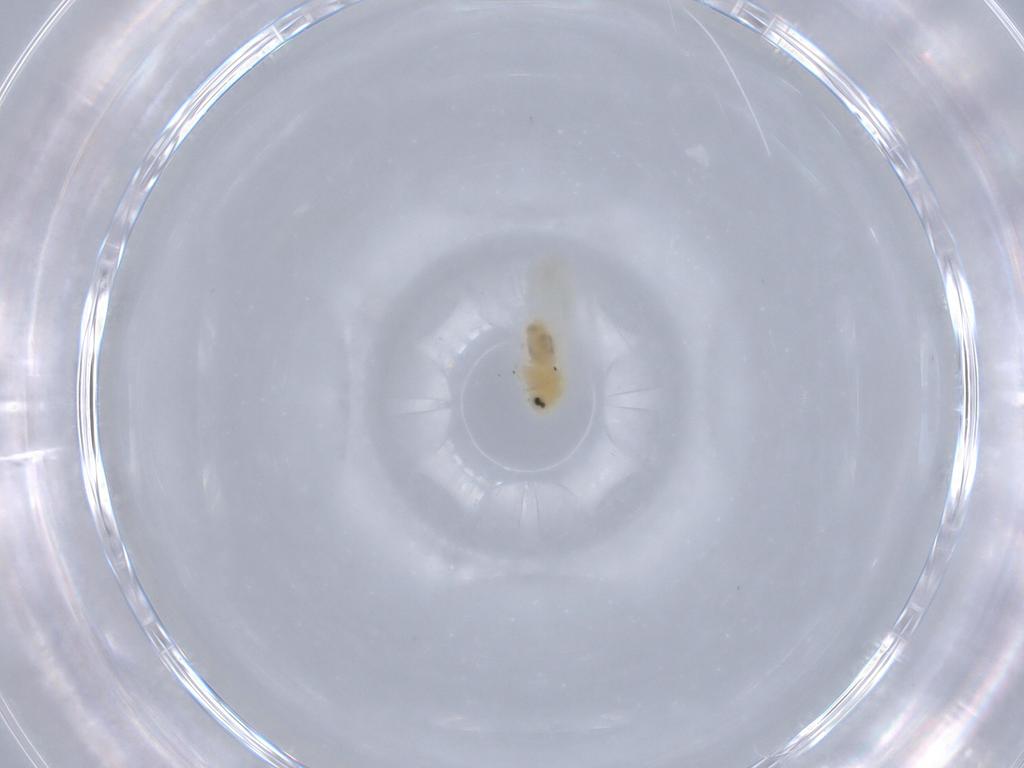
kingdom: Animalia
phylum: Arthropoda
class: Insecta
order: Hemiptera
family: Aleyrodidae
